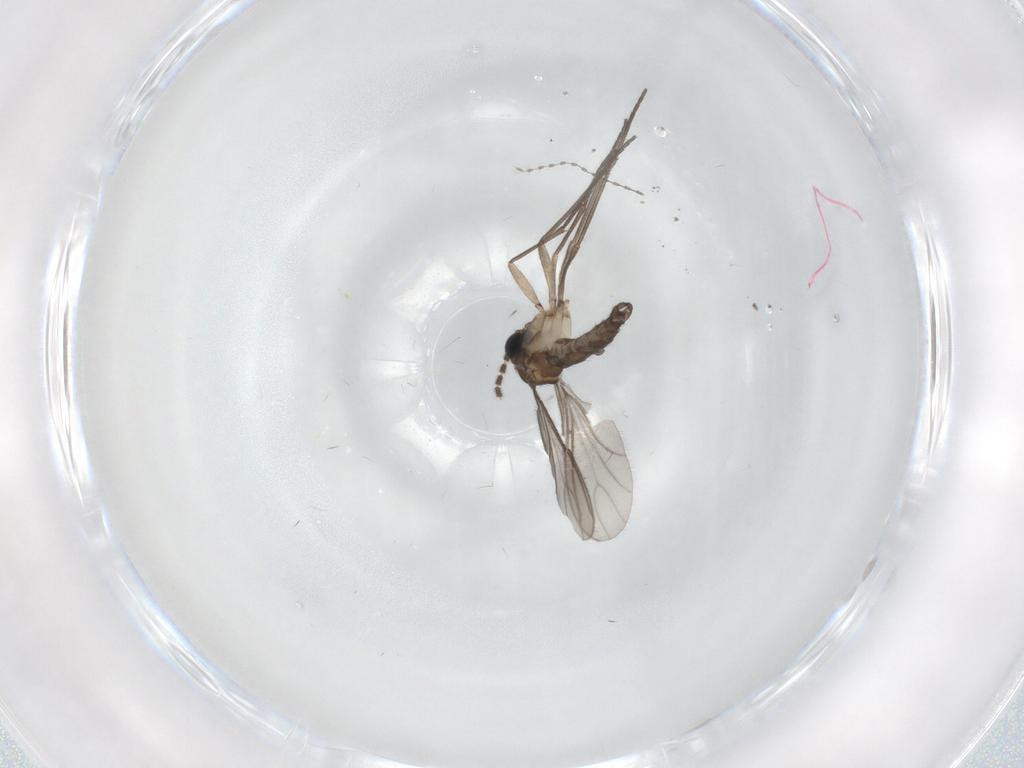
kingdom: Animalia
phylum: Arthropoda
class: Insecta
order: Diptera
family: Sciaridae
